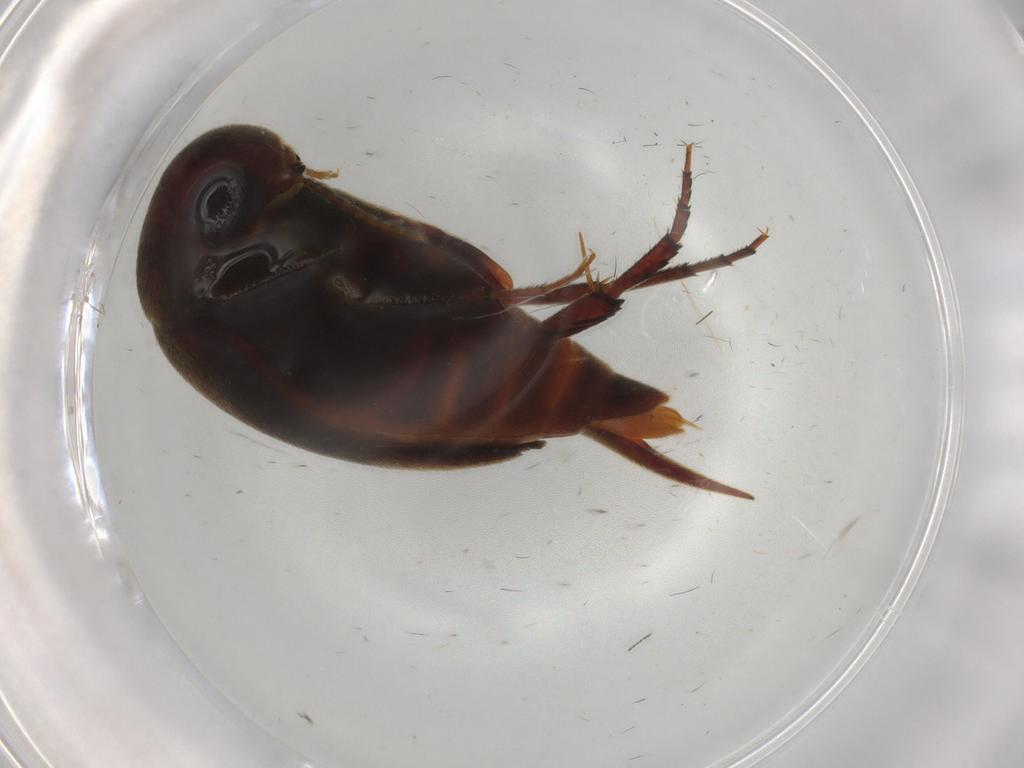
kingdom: Animalia
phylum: Arthropoda
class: Insecta
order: Coleoptera
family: Mordellidae
